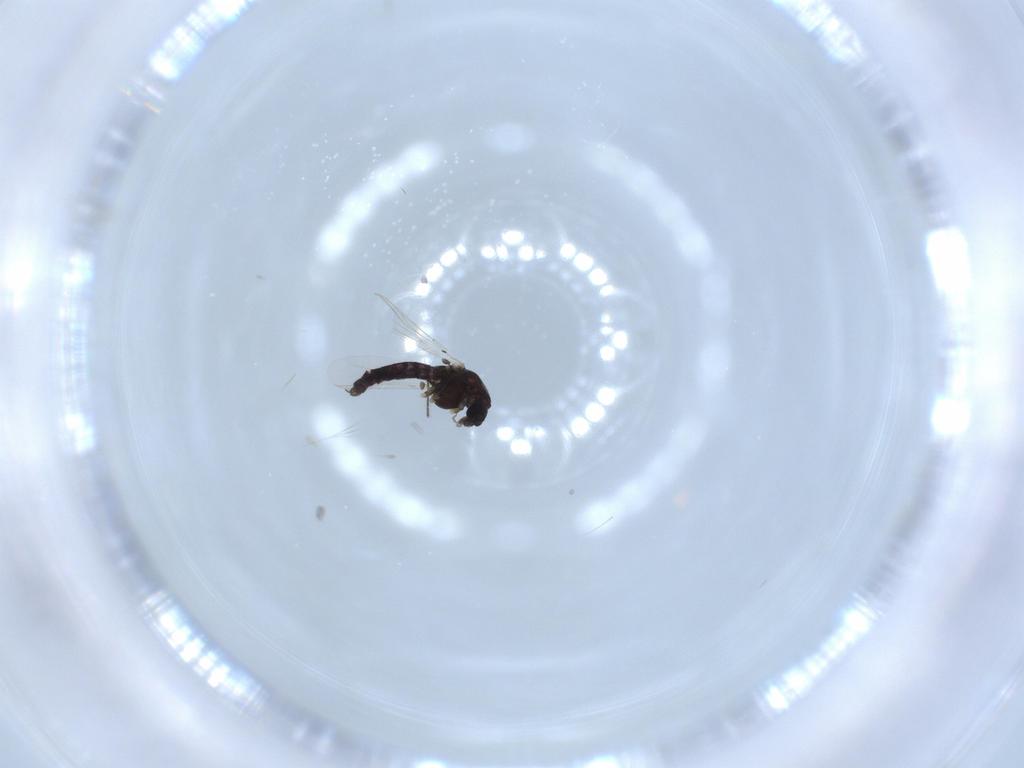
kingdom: Animalia
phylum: Arthropoda
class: Insecta
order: Diptera
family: Chironomidae
